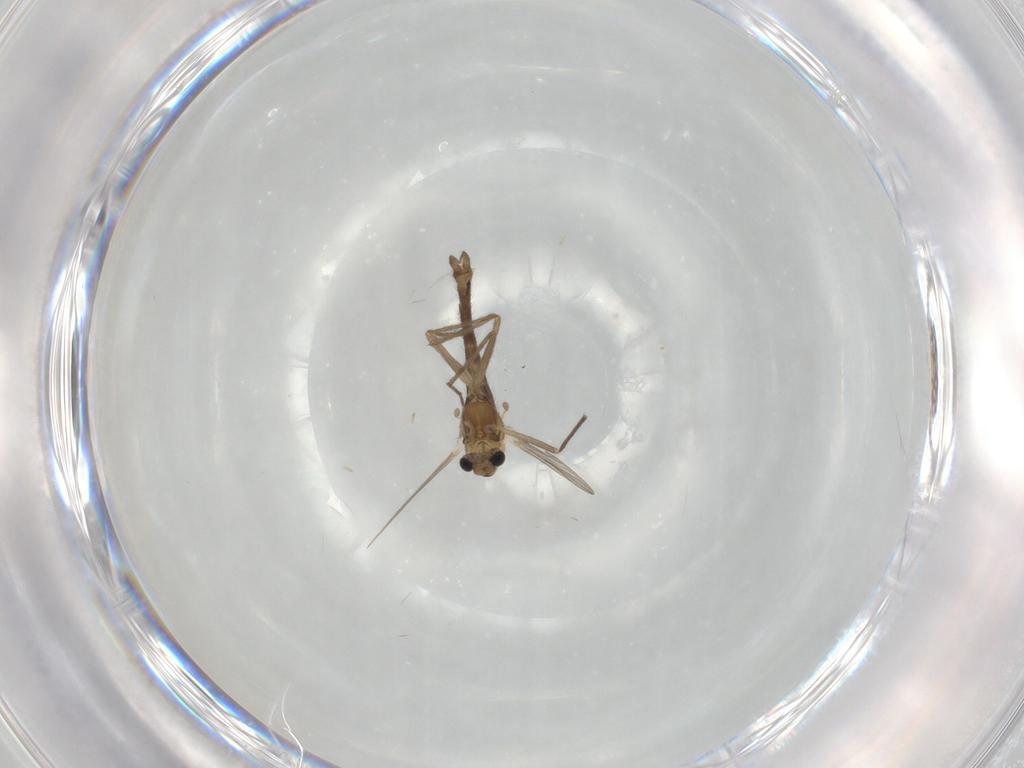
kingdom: Animalia
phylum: Arthropoda
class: Insecta
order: Diptera
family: Chironomidae
